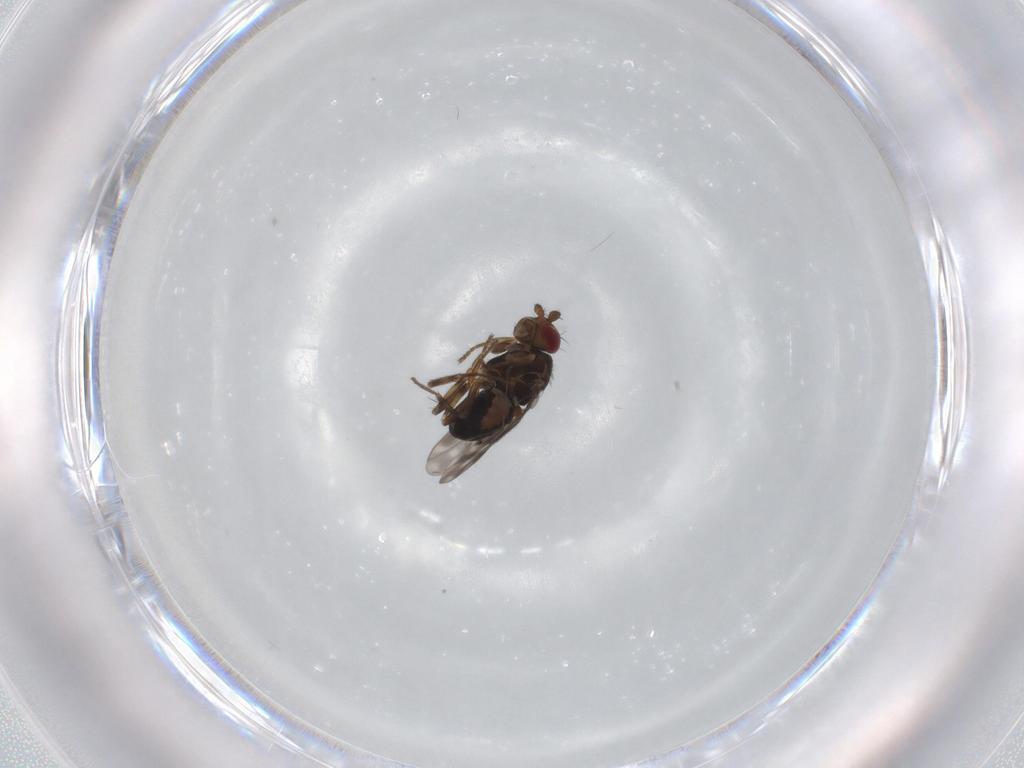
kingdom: Animalia
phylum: Arthropoda
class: Insecta
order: Diptera
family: Sphaeroceridae
